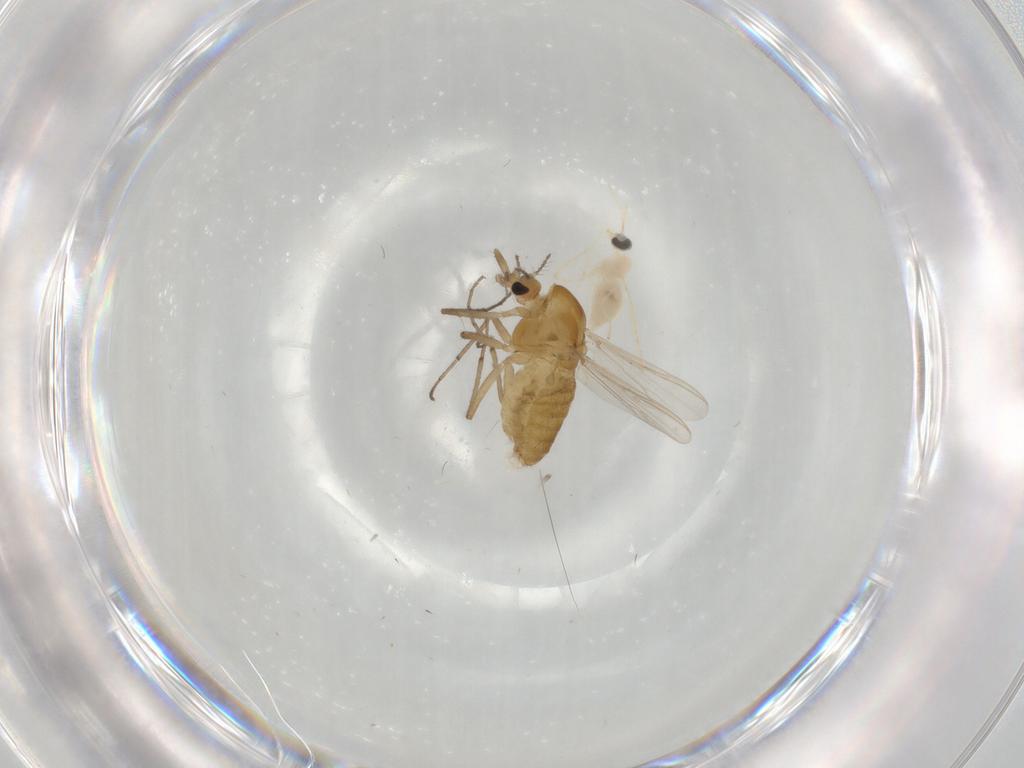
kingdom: Animalia
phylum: Arthropoda
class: Insecta
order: Diptera
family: Cecidomyiidae
